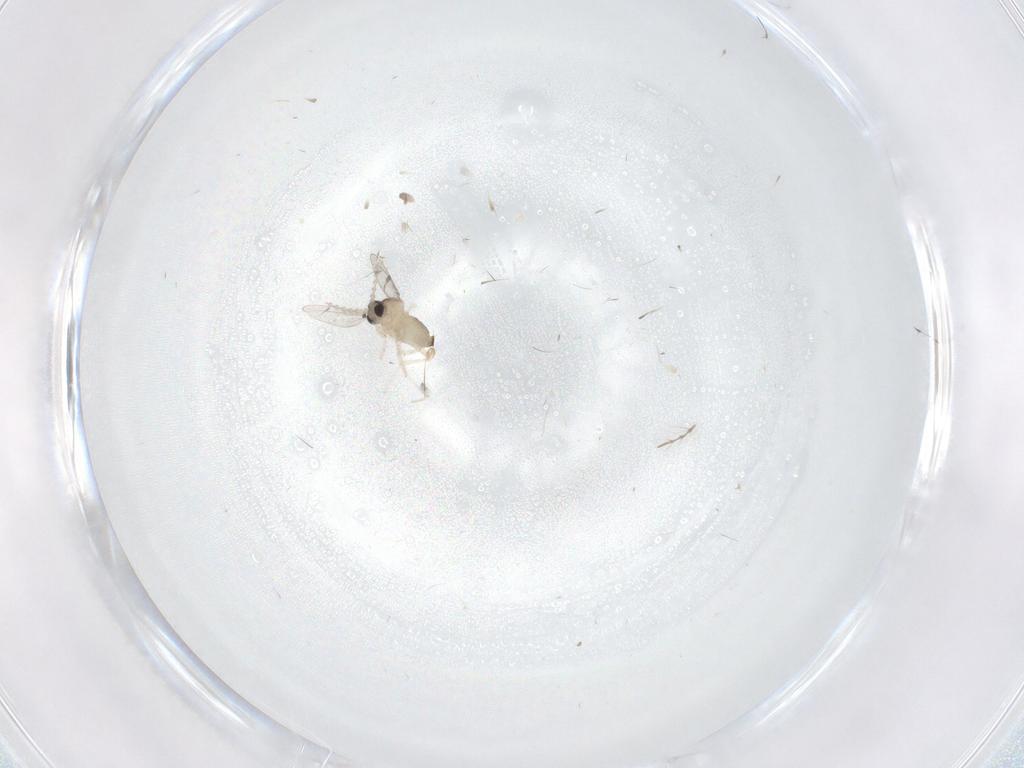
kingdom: Animalia
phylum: Arthropoda
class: Insecta
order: Diptera
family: Cecidomyiidae
